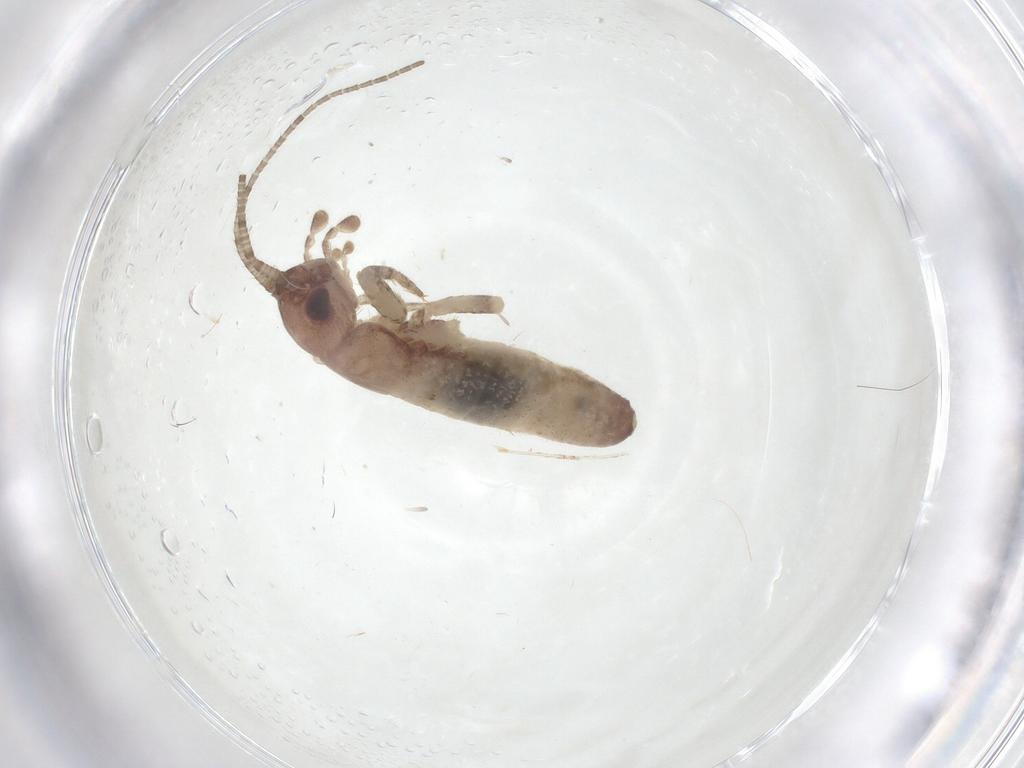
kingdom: Animalia
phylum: Arthropoda
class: Insecta
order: Orthoptera
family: Gryllidae
